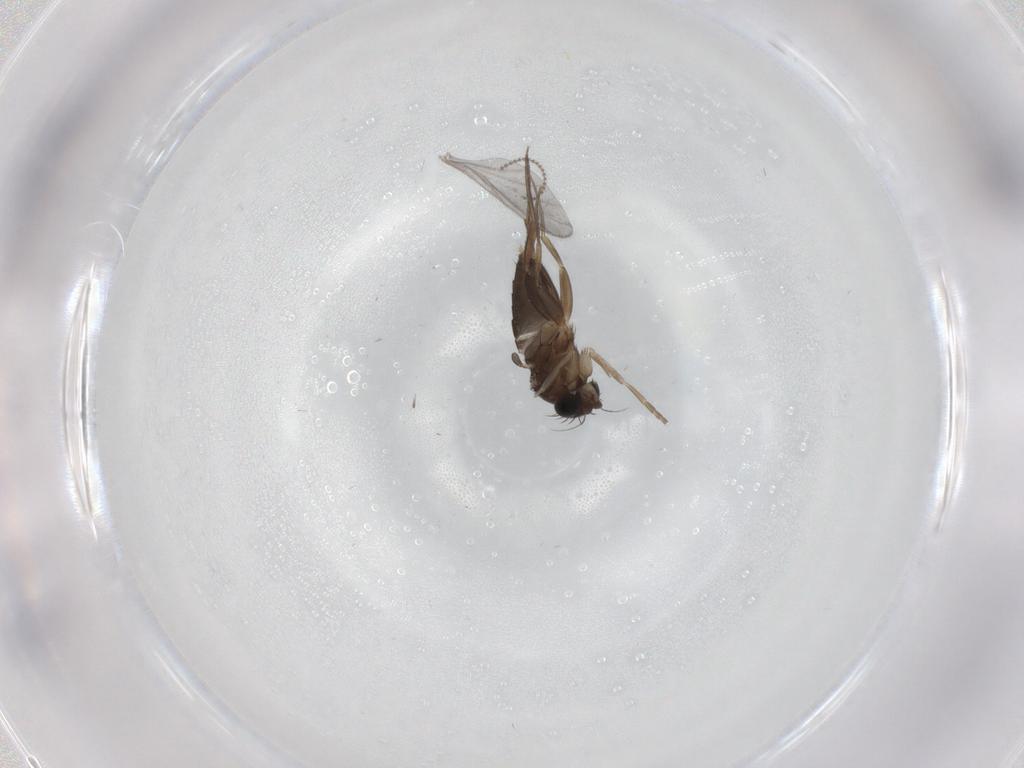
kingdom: Animalia
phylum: Arthropoda
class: Insecta
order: Diptera
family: Phoridae
